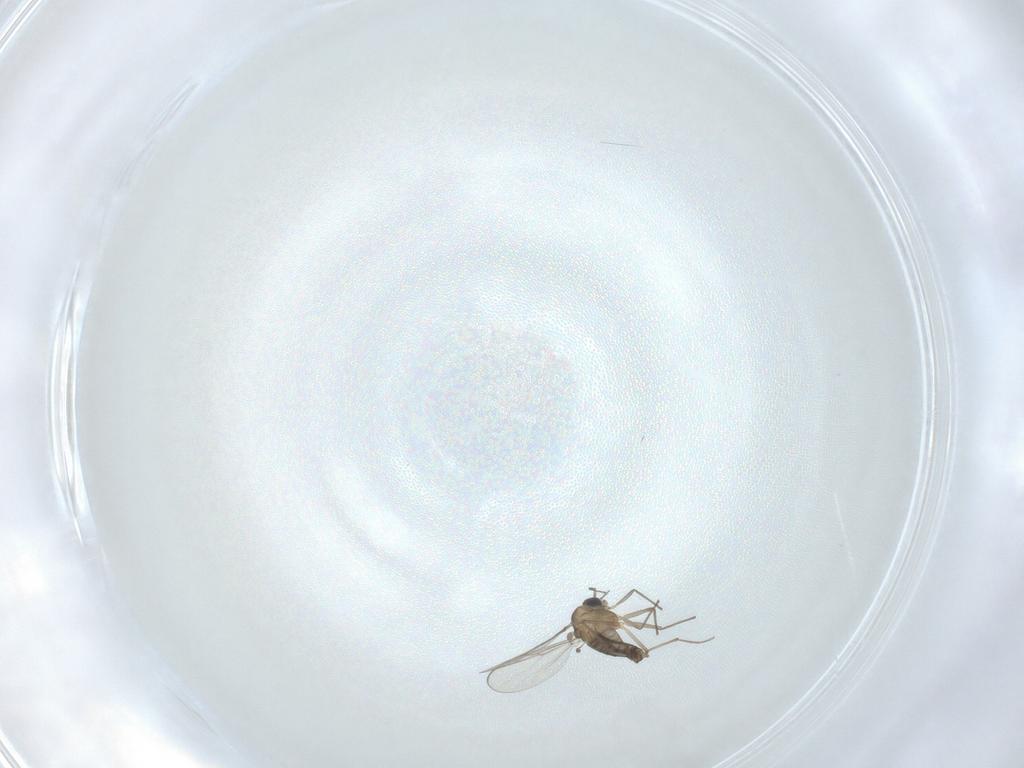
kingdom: Animalia
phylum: Arthropoda
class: Insecta
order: Diptera
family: Chironomidae
